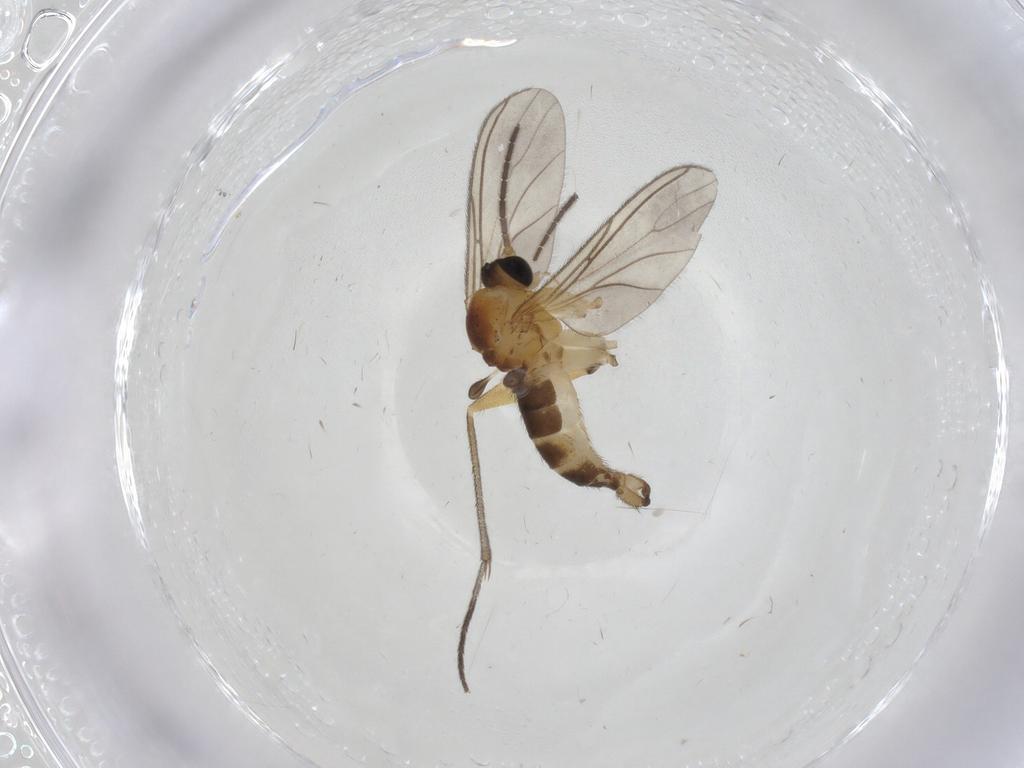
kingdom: Animalia
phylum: Arthropoda
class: Insecta
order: Diptera
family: Sciaridae
